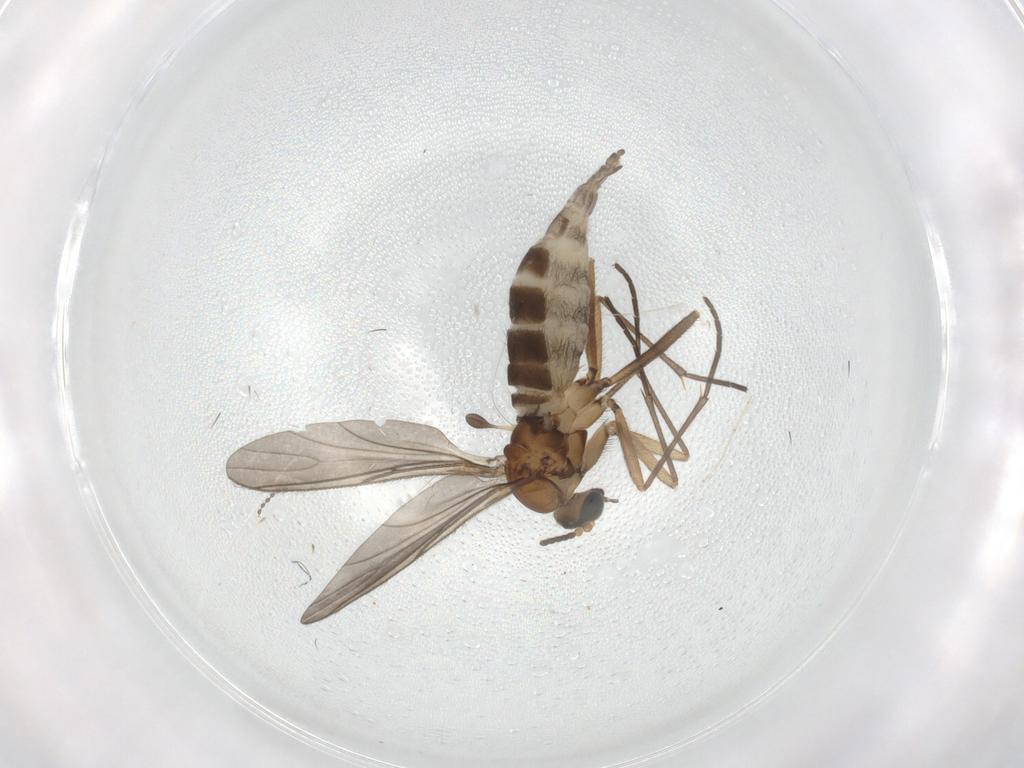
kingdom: Animalia
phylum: Arthropoda
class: Insecta
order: Diptera
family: Sciaridae
